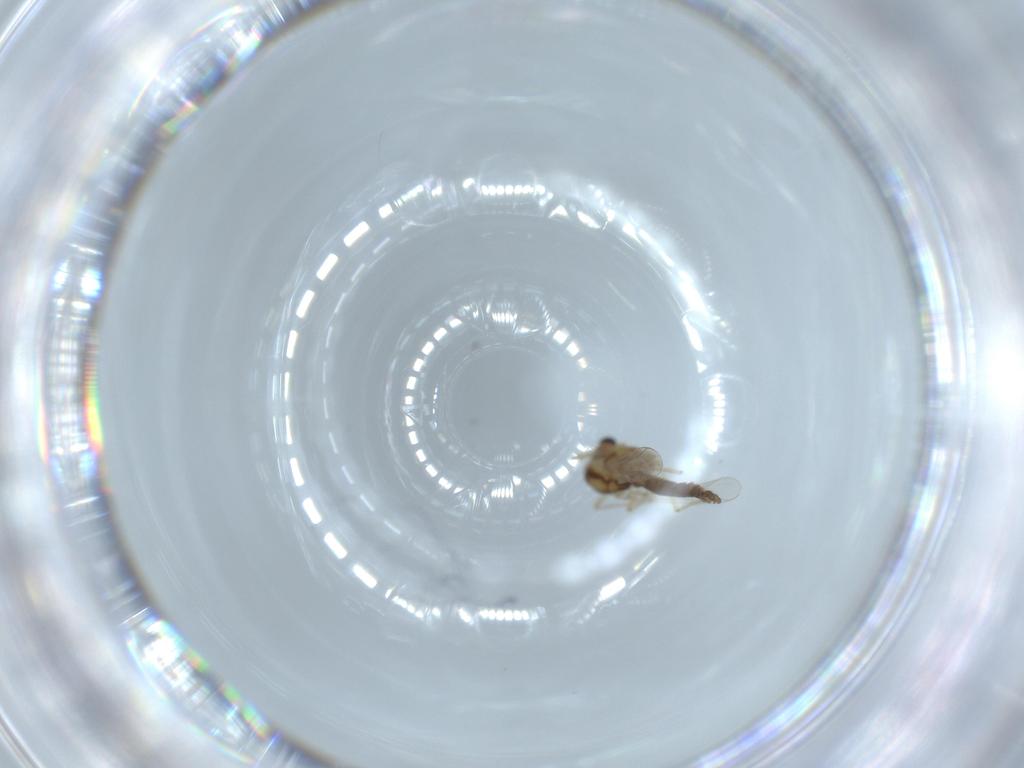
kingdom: Animalia
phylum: Arthropoda
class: Insecta
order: Diptera
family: Chironomidae
